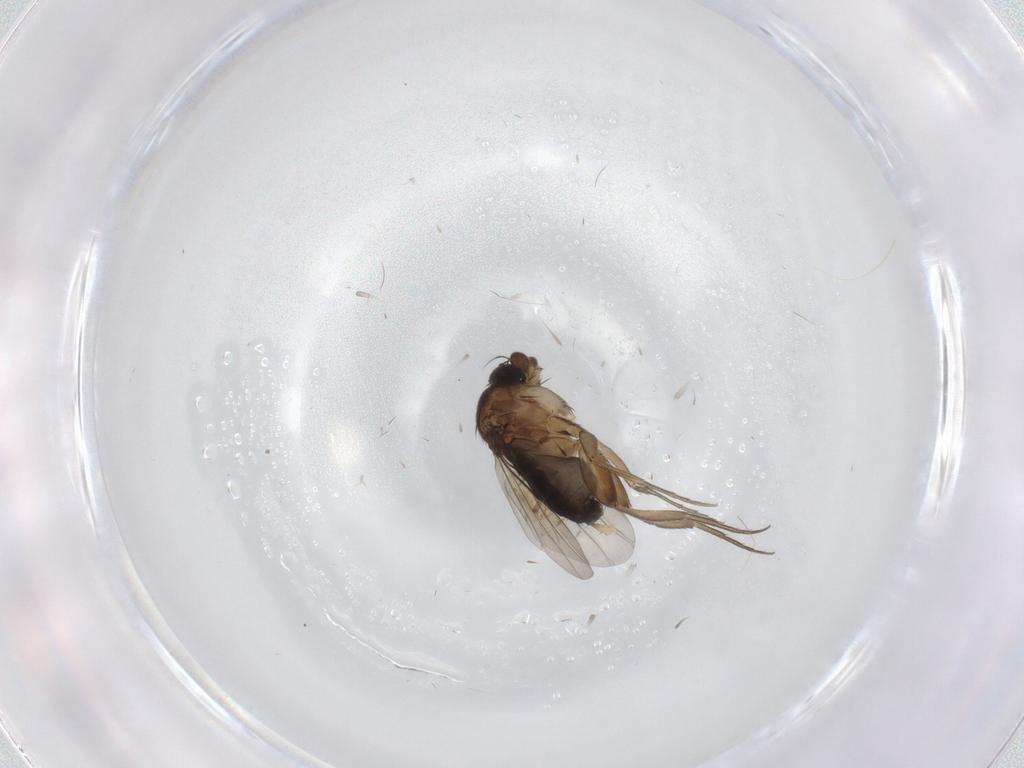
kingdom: Animalia
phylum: Arthropoda
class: Insecta
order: Diptera
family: Phoridae
